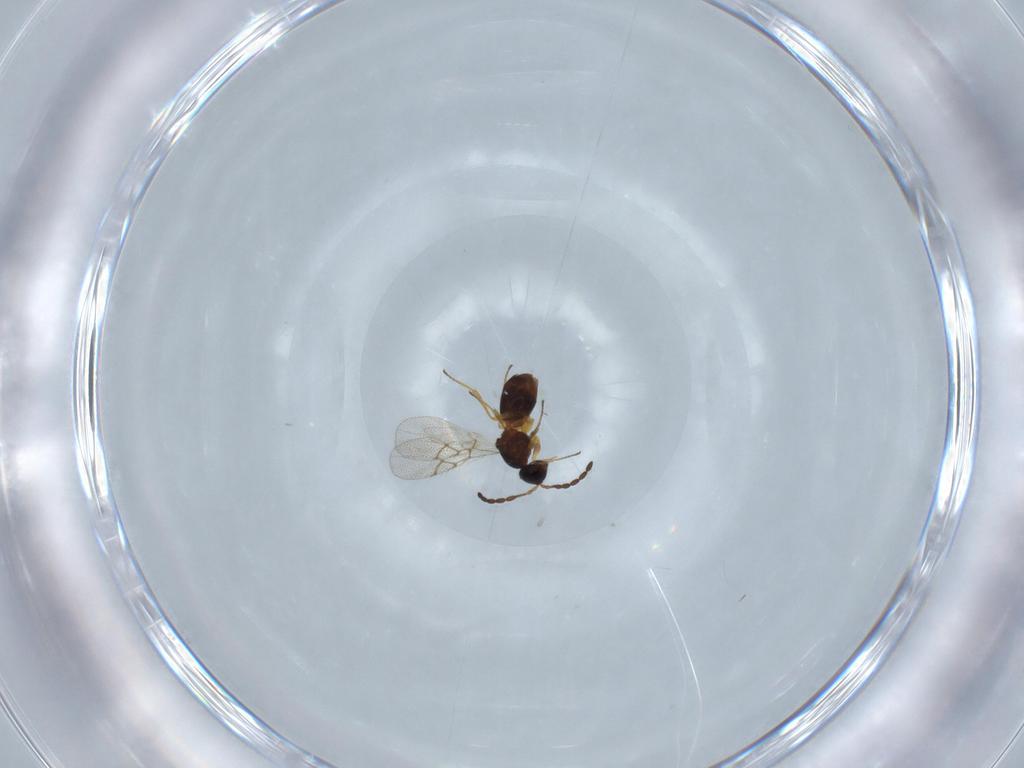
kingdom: Animalia
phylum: Arthropoda
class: Insecta
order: Hymenoptera
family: Figitidae
